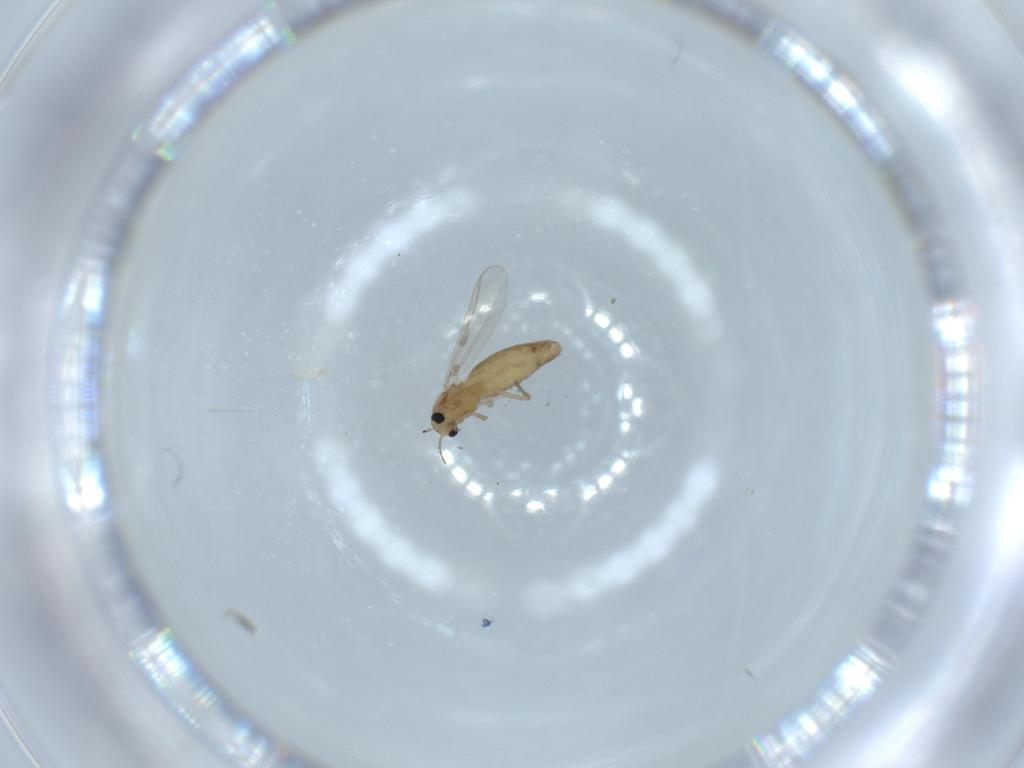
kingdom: Animalia
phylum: Arthropoda
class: Insecta
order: Diptera
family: Chironomidae
